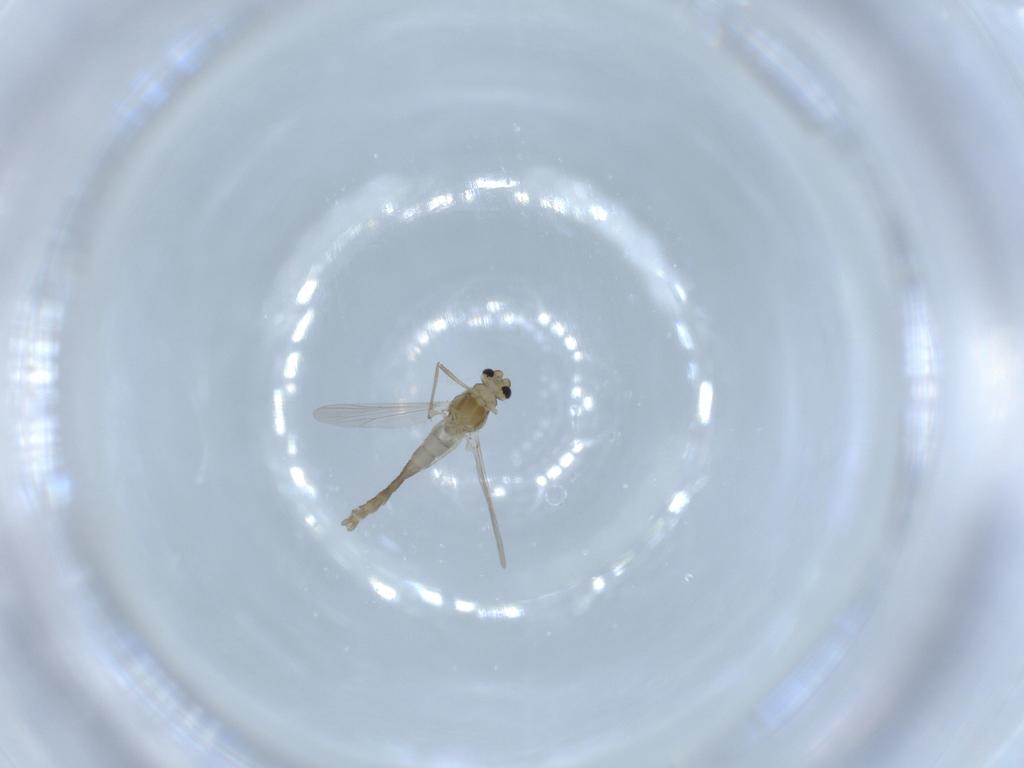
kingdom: Animalia
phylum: Arthropoda
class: Insecta
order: Diptera
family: Chironomidae
